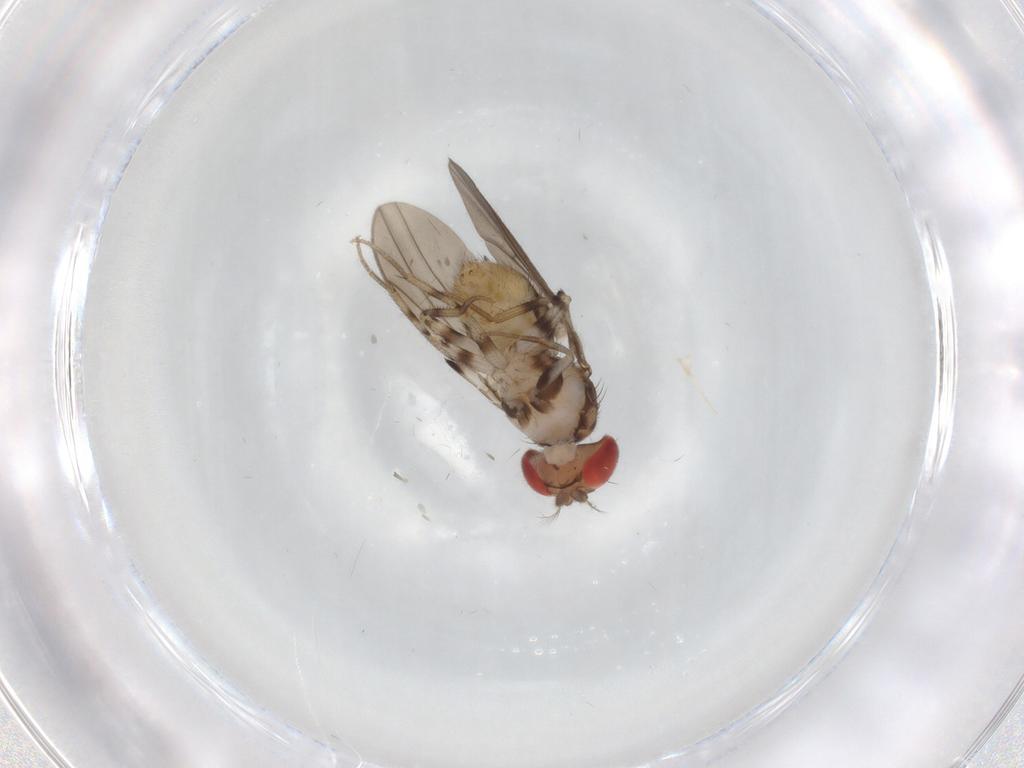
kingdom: Animalia
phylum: Arthropoda
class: Insecta
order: Diptera
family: Drosophilidae
